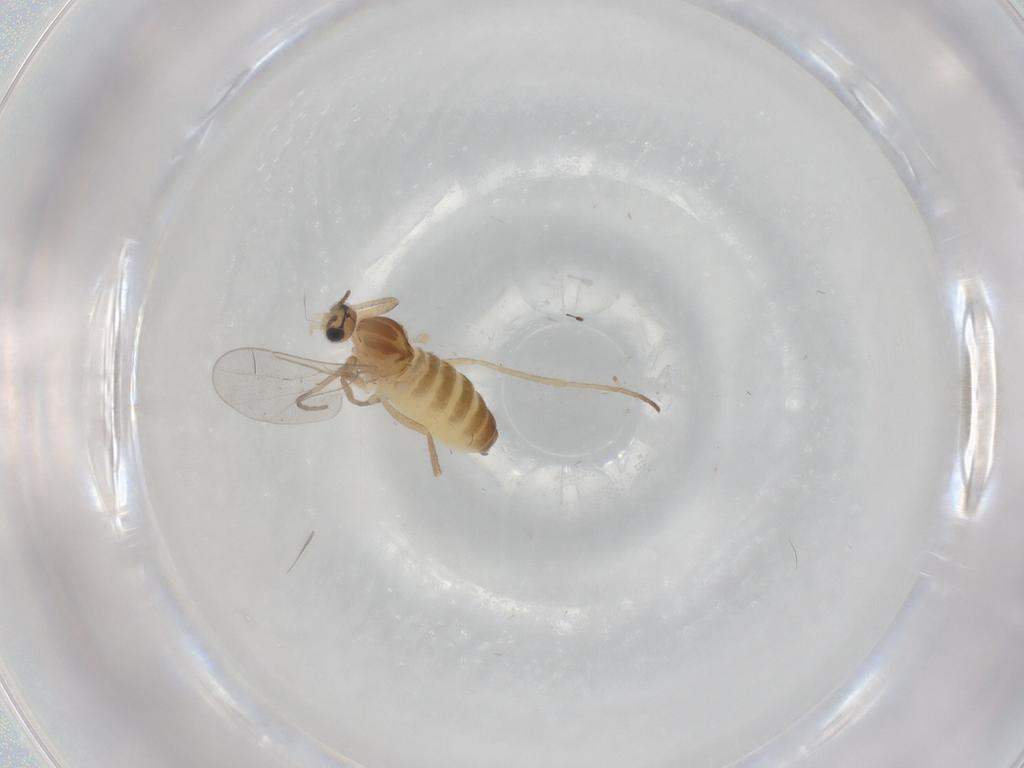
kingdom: Animalia
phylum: Arthropoda
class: Insecta
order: Diptera
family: Cecidomyiidae
